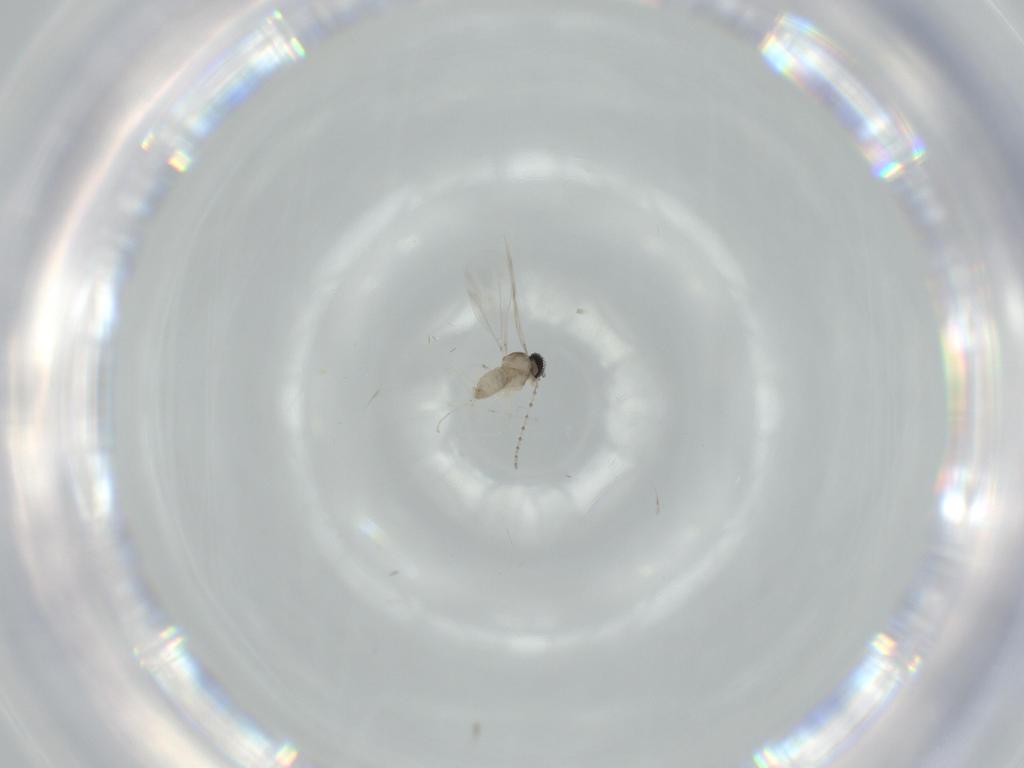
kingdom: Animalia
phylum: Arthropoda
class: Insecta
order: Diptera
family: Cecidomyiidae
